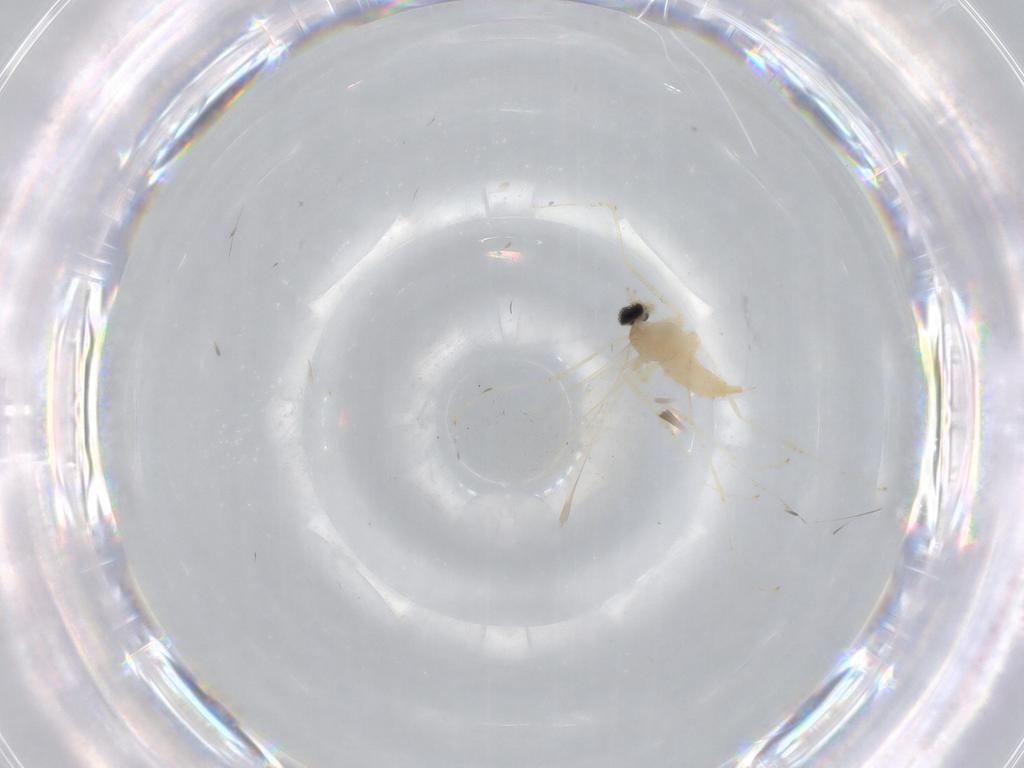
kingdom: Animalia
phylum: Arthropoda
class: Insecta
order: Diptera
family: Cecidomyiidae
